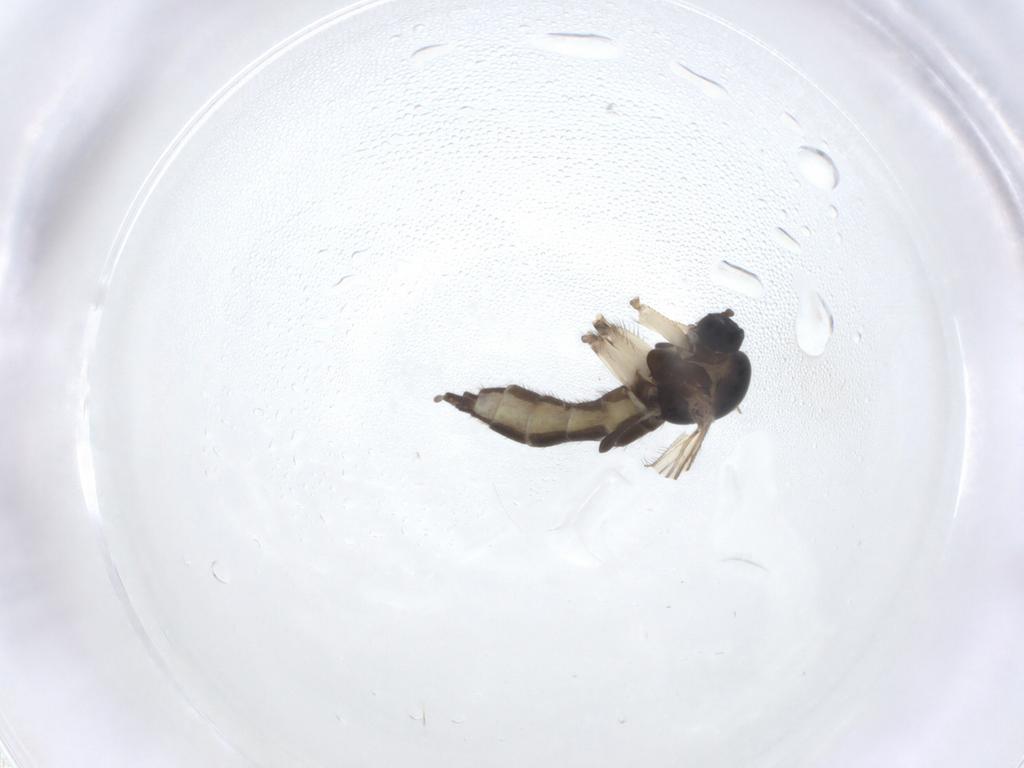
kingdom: Animalia
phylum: Arthropoda
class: Insecta
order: Diptera
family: Sciaridae
